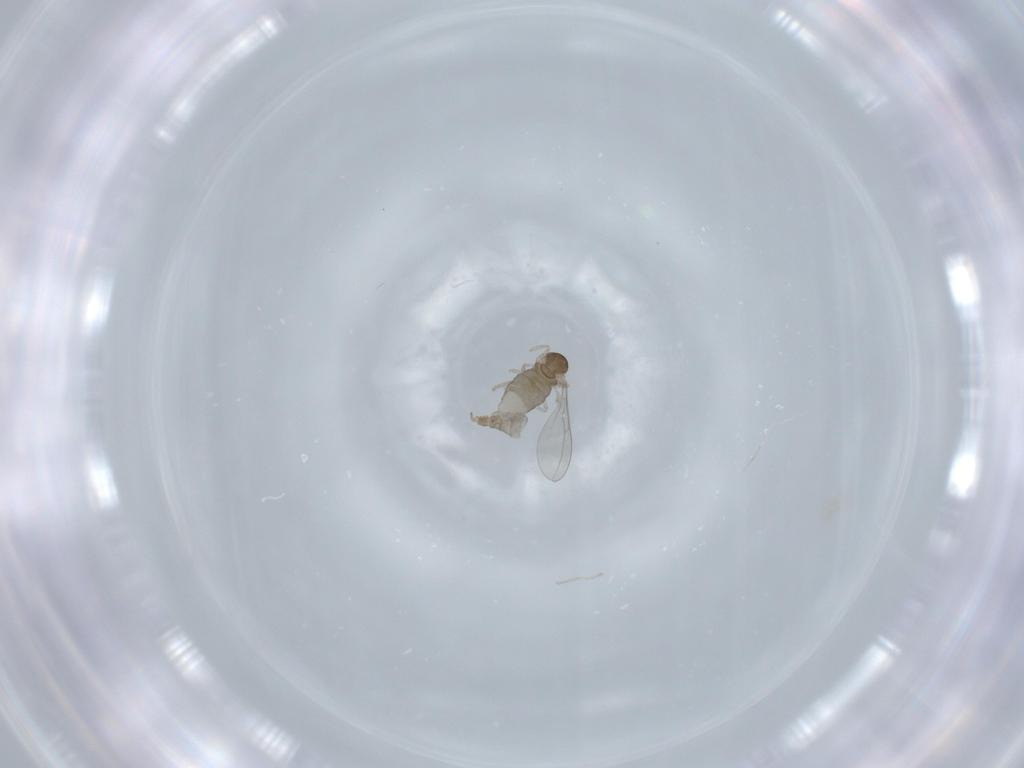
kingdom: Animalia
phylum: Arthropoda
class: Insecta
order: Diptera
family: Cecidomyiidae
